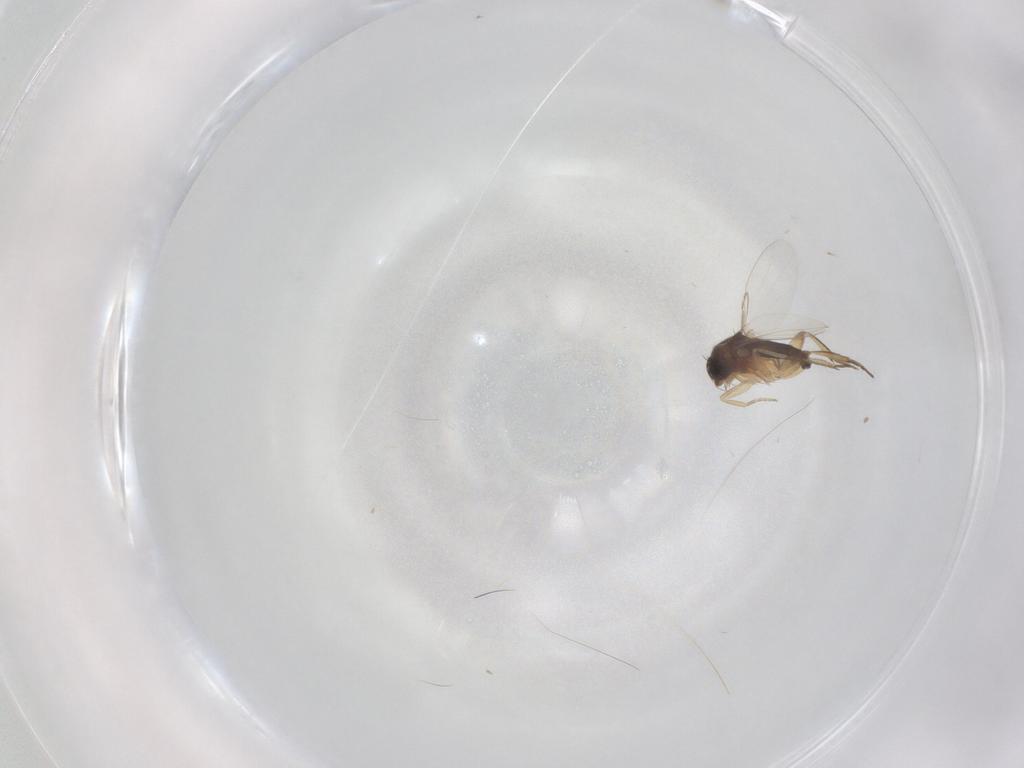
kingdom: Animalia
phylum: Arthropoda
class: Insecta
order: Diptera
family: Phoridae
